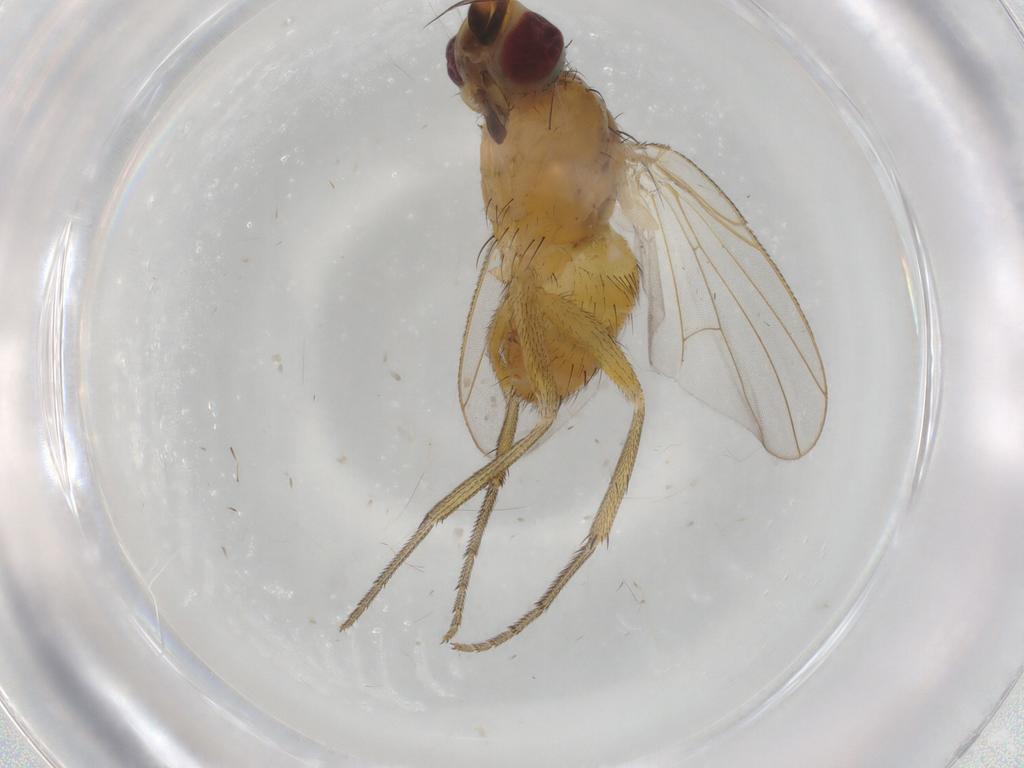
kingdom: Animalia
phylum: Arthropoda
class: Insecta
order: Diptera
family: Muscidae
